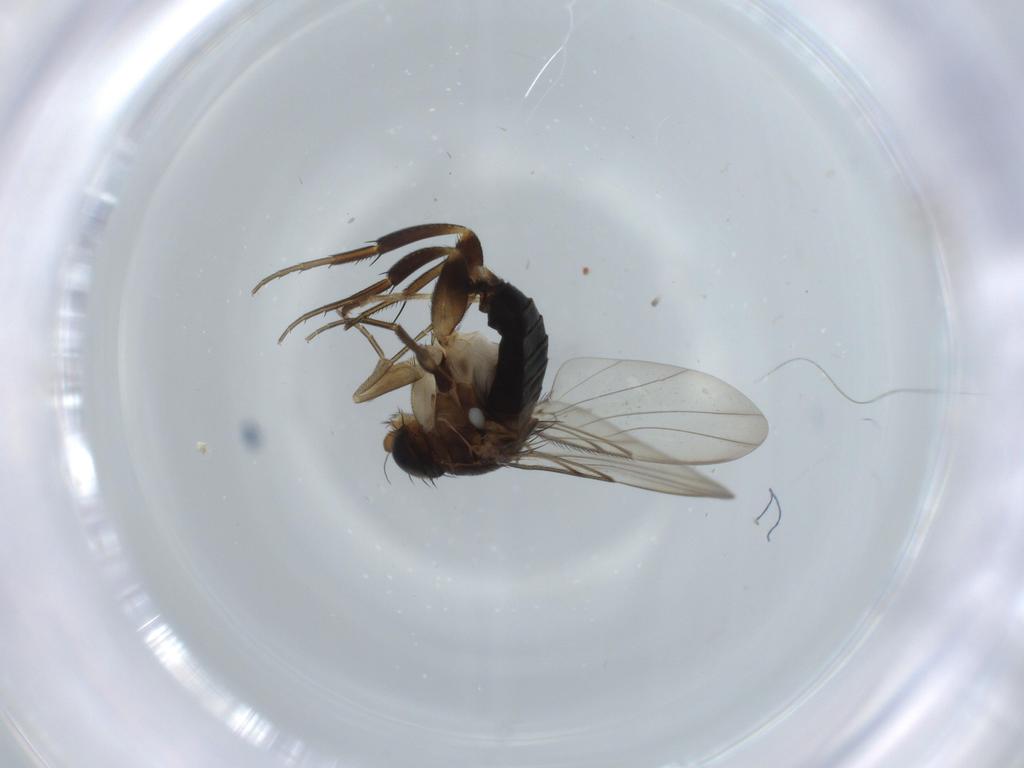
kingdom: Animalia
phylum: Arthropoda
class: Insecta
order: Diptera
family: Phoridae
